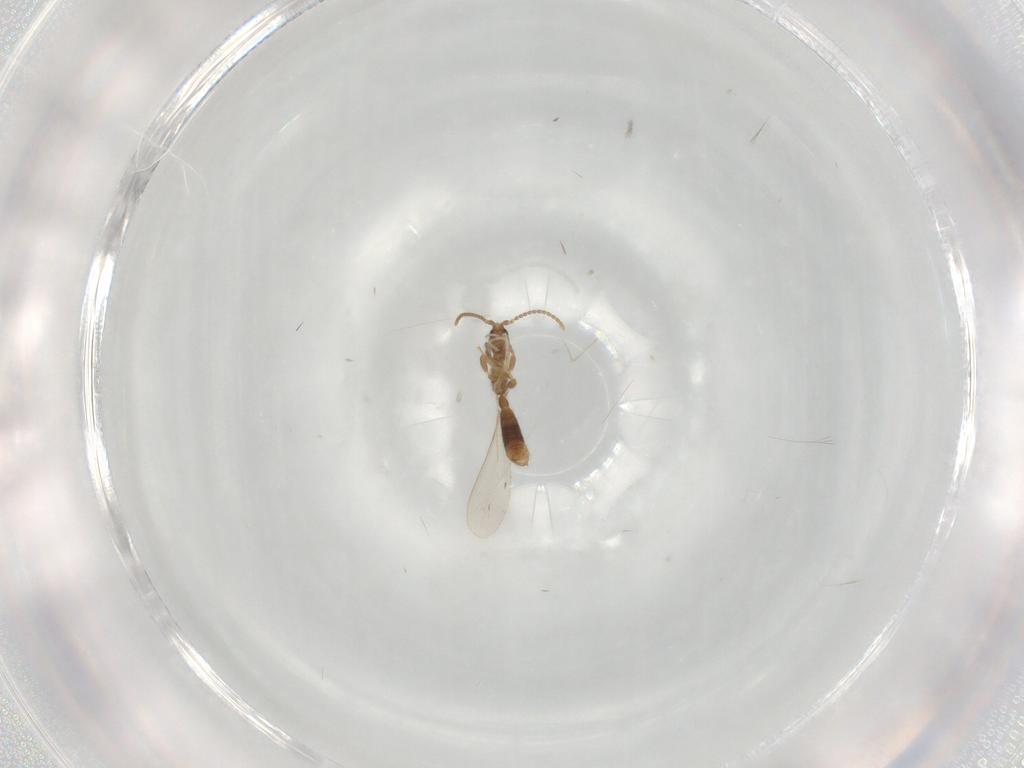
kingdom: Animalia
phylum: Arthropoda
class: Insecta
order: Hymenoptera
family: Formicidae
